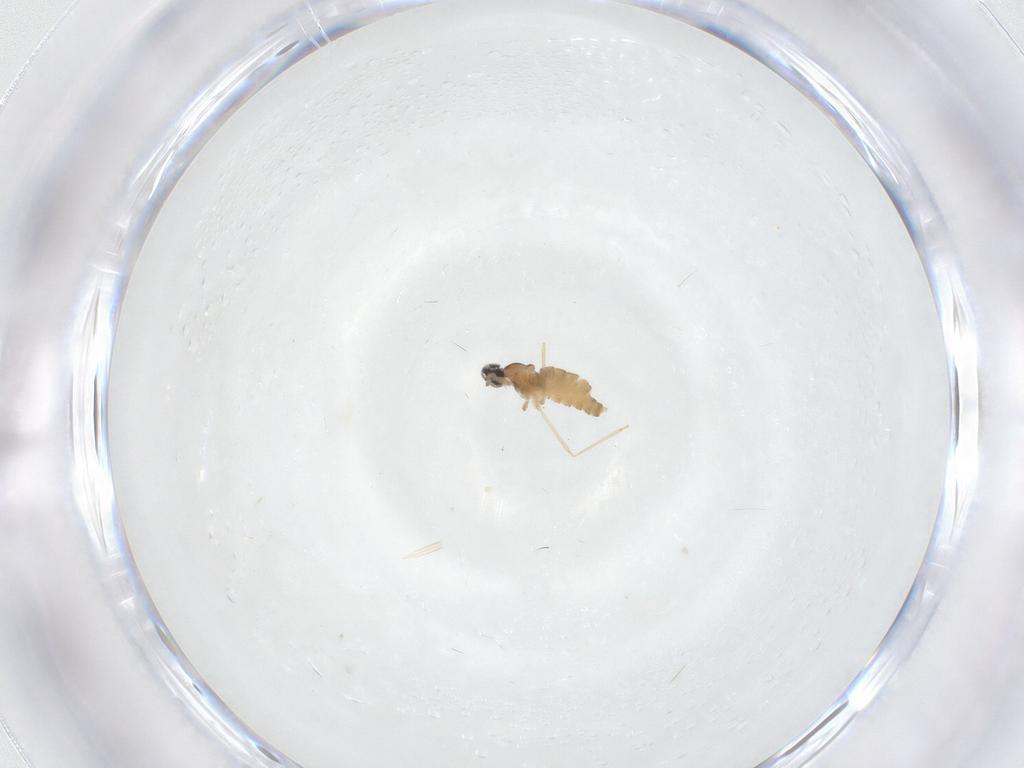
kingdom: Animalia
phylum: Arthropoda
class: Insecta
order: Diptera
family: Cecidomyiidae
